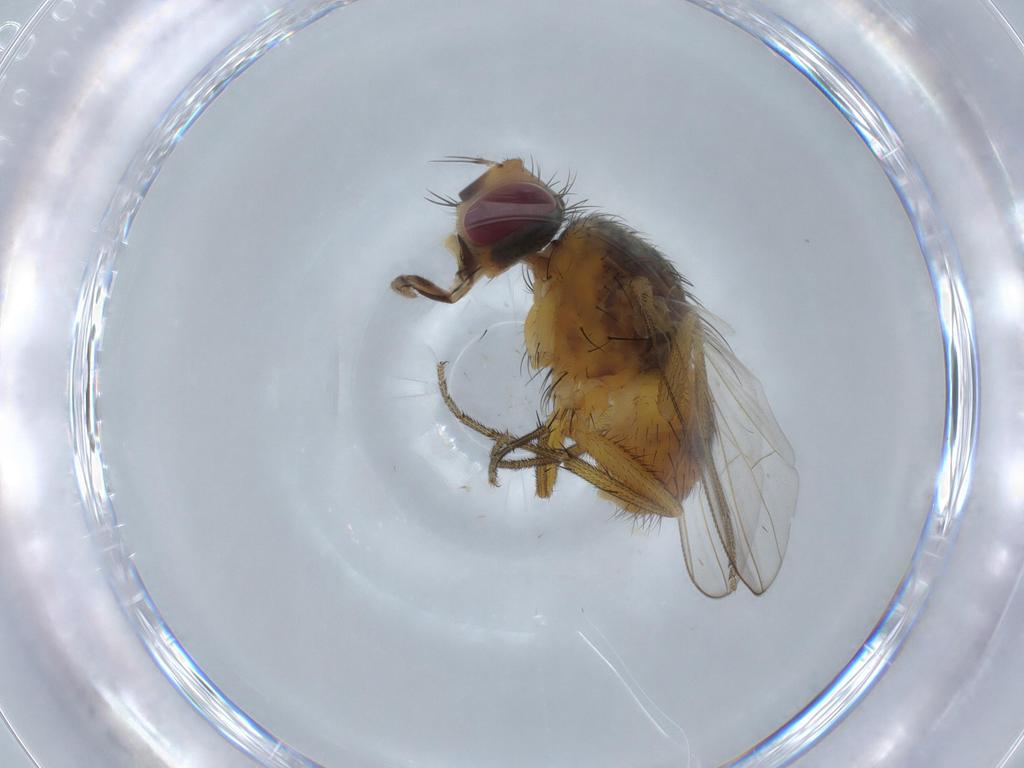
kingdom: Animalia
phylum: Arthropoda
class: Insecta
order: Diptera
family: Muscidae
